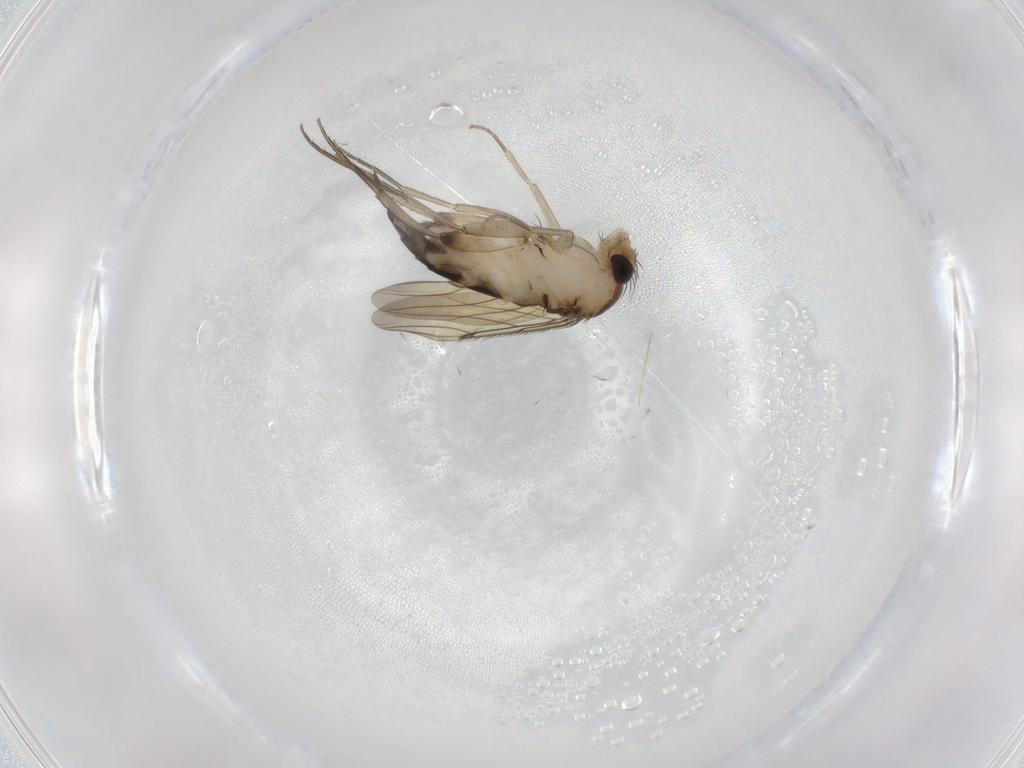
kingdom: Animalia
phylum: Arthropoda
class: Insecta
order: Diptera
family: Phoridae
